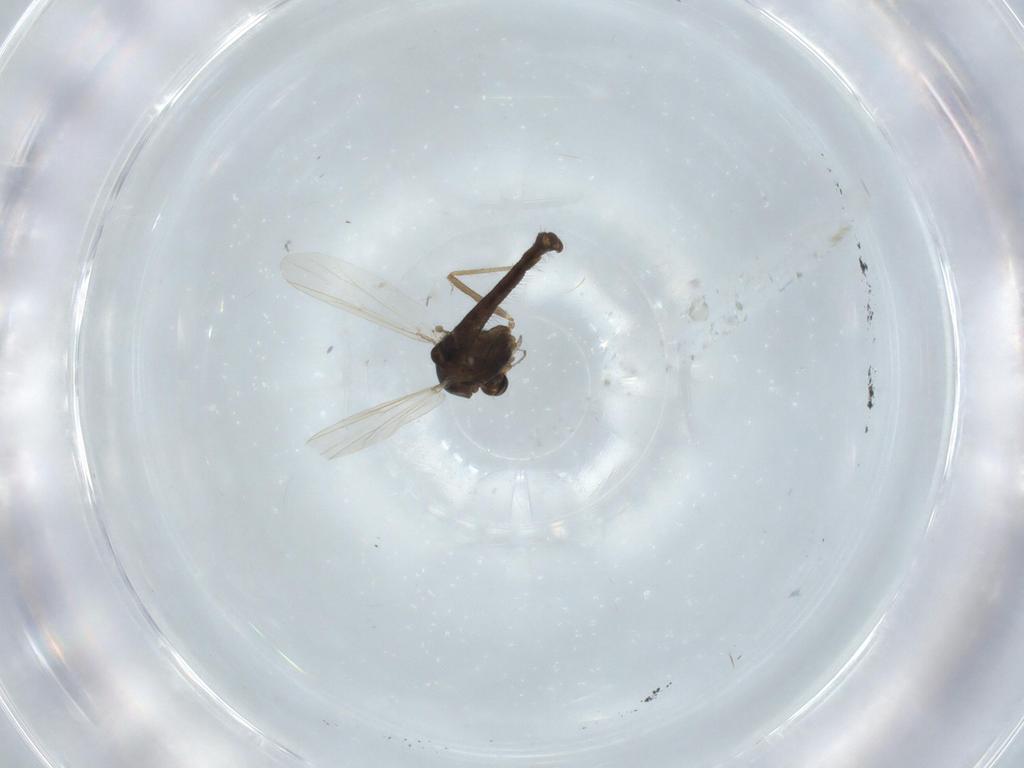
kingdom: Animalia
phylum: Arthropoda
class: Insecta
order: Diptera
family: Chironomidae
